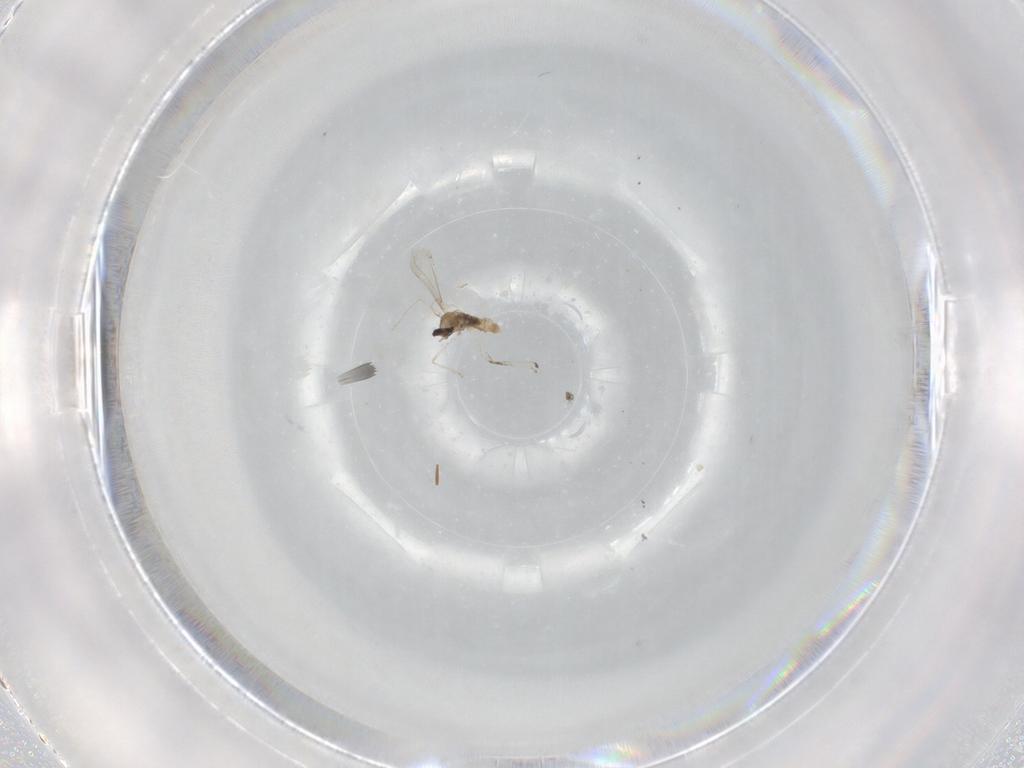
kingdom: Animalia
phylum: Arthropoda
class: Insecta
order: Diptera
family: Cecidomyiidae
